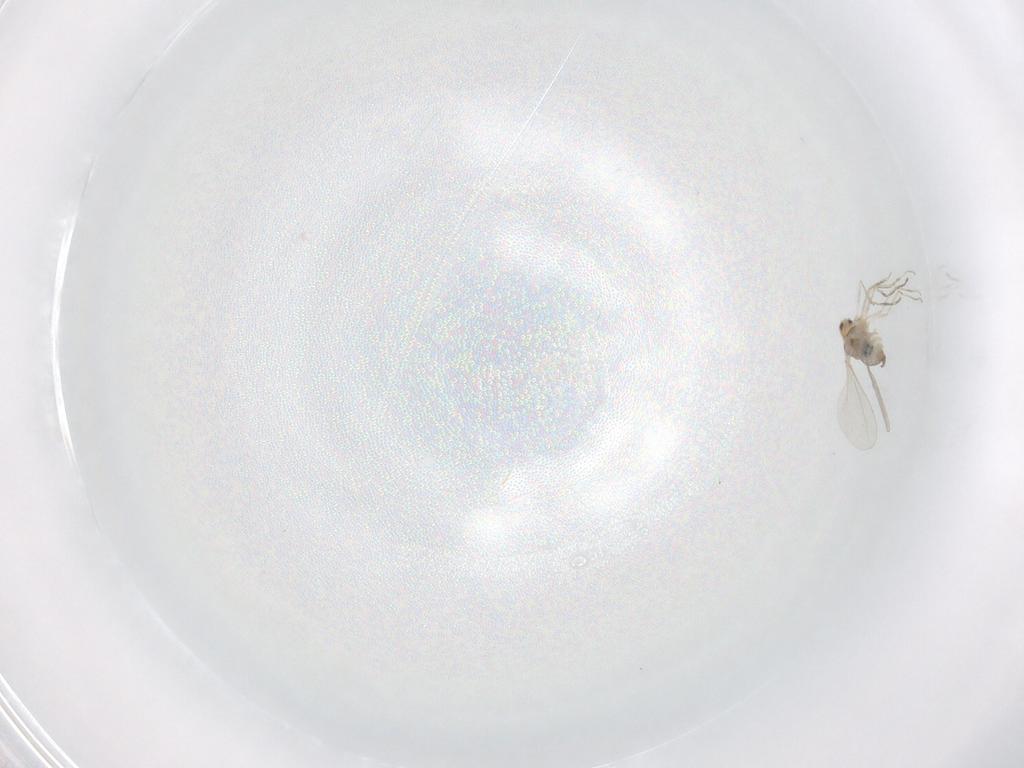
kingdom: Animalia
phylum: Arthropoda
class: Insecta
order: Diptera
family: Cecidomyiidae
